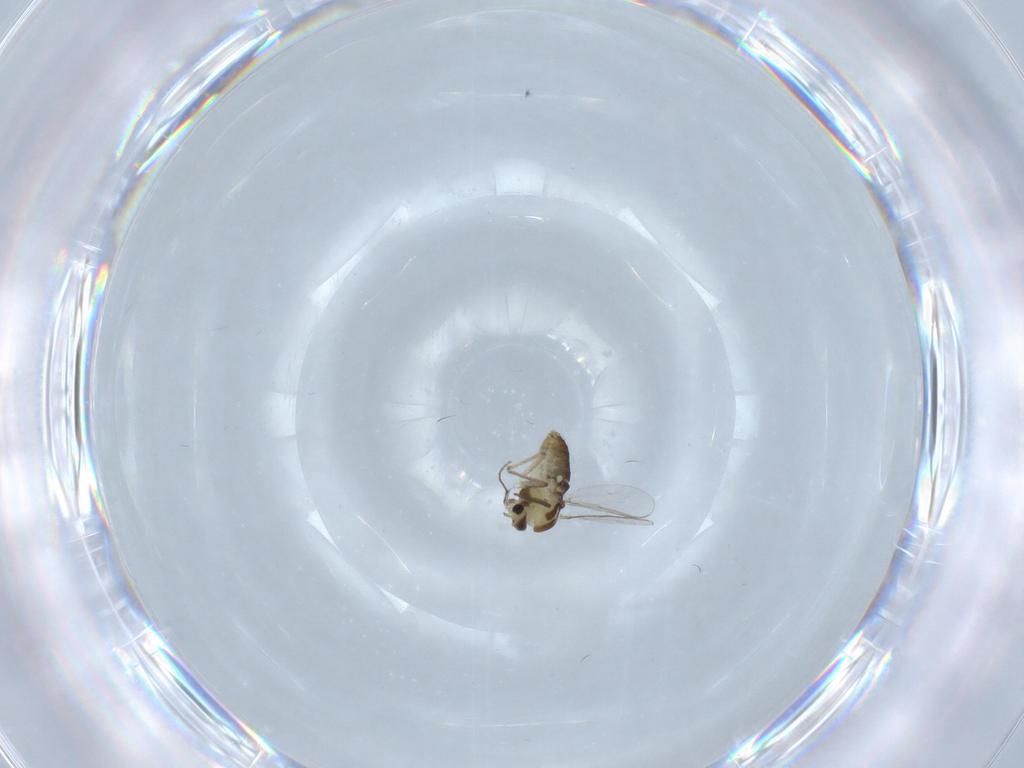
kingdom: Animalia
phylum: Arthropoda
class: Insecta
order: Diptera
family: Chironomidae
